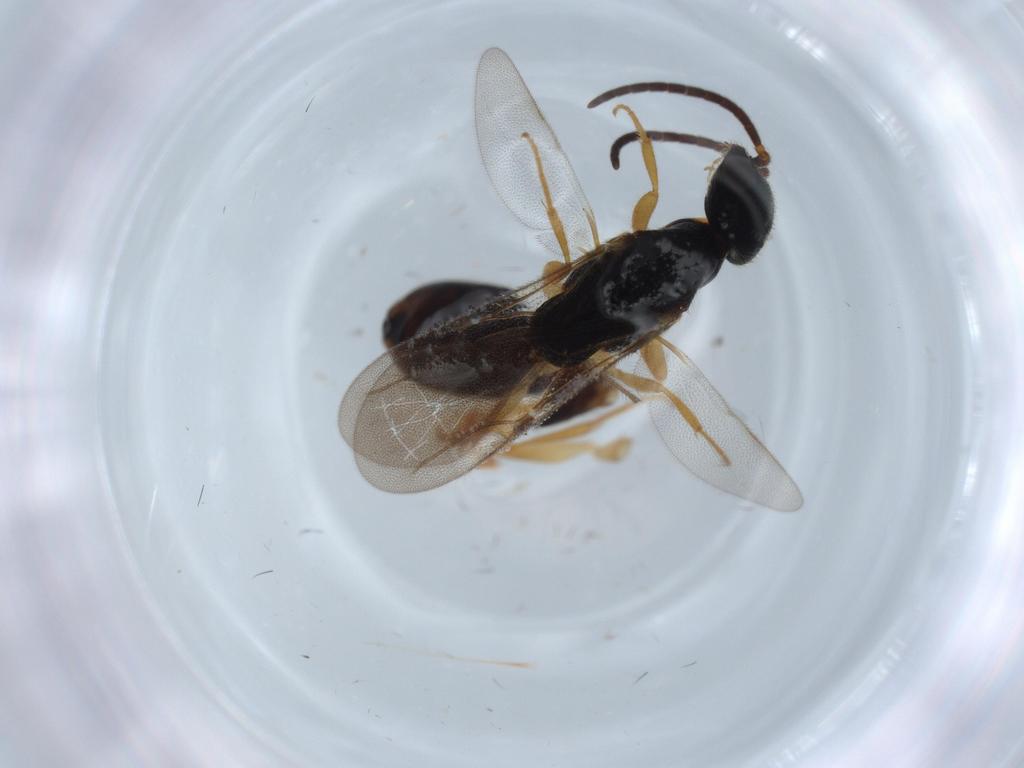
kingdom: Animalia
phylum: Arthropoda
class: Insecta
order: Hymenoptera
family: Bethylidae
